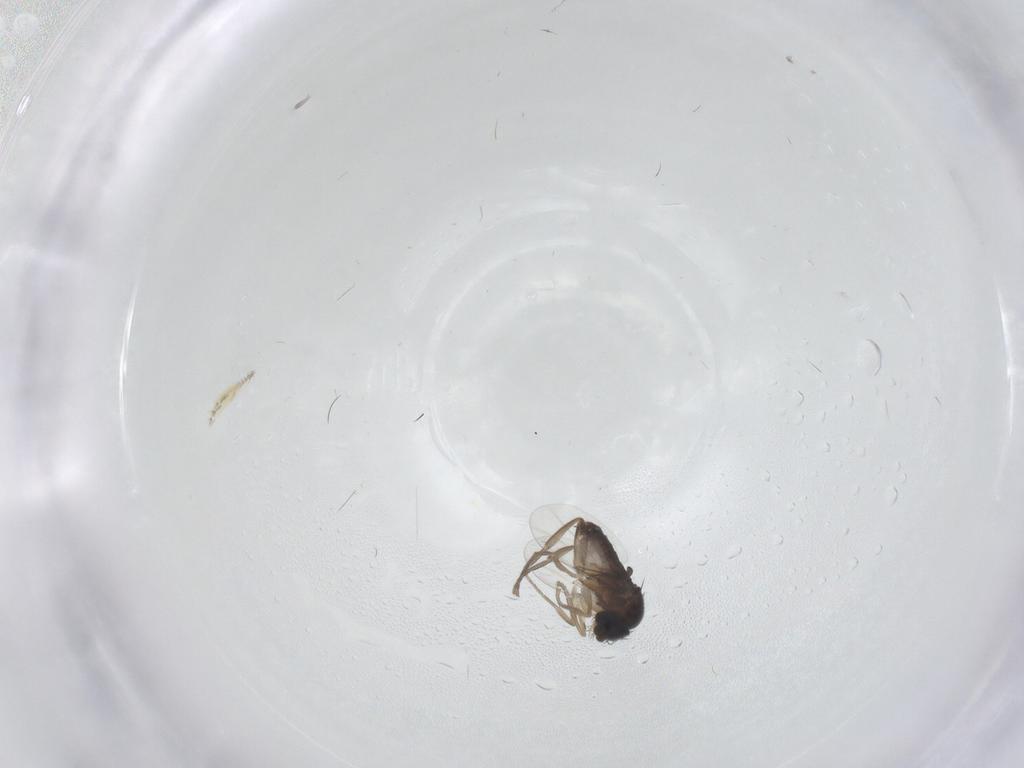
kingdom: Animalia
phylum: Arthropoda
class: Insecta
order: Diptera
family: Phoridae
